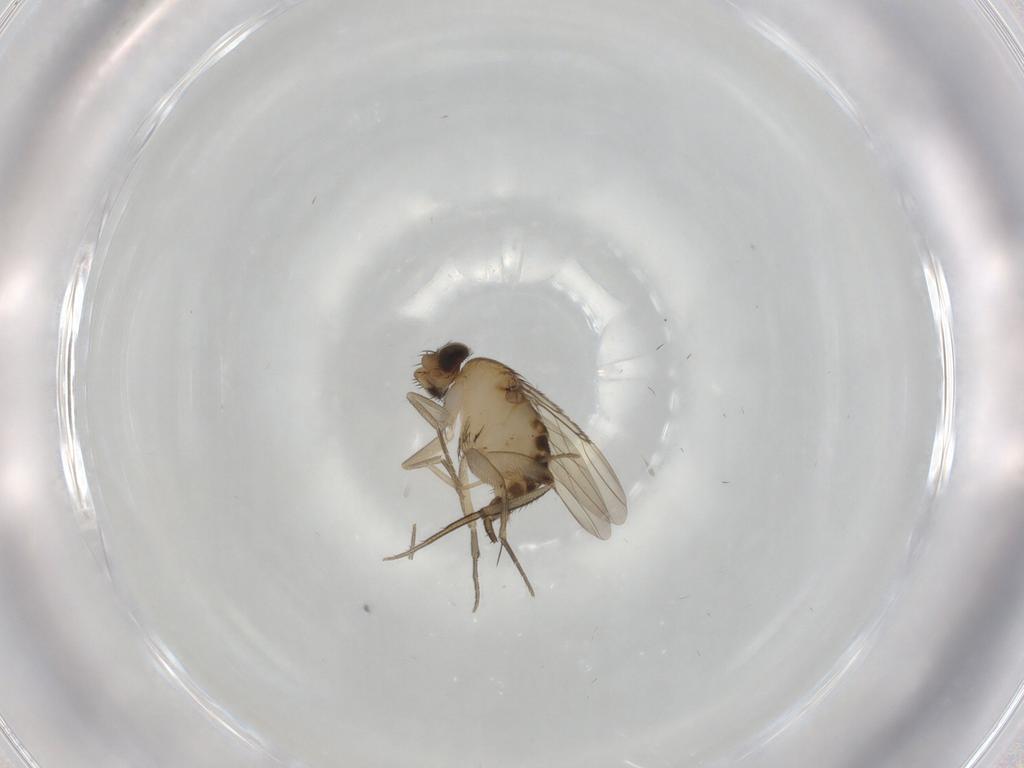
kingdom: Animalia
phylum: Arthropoda
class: Insecta
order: Diptera
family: Phoridae
